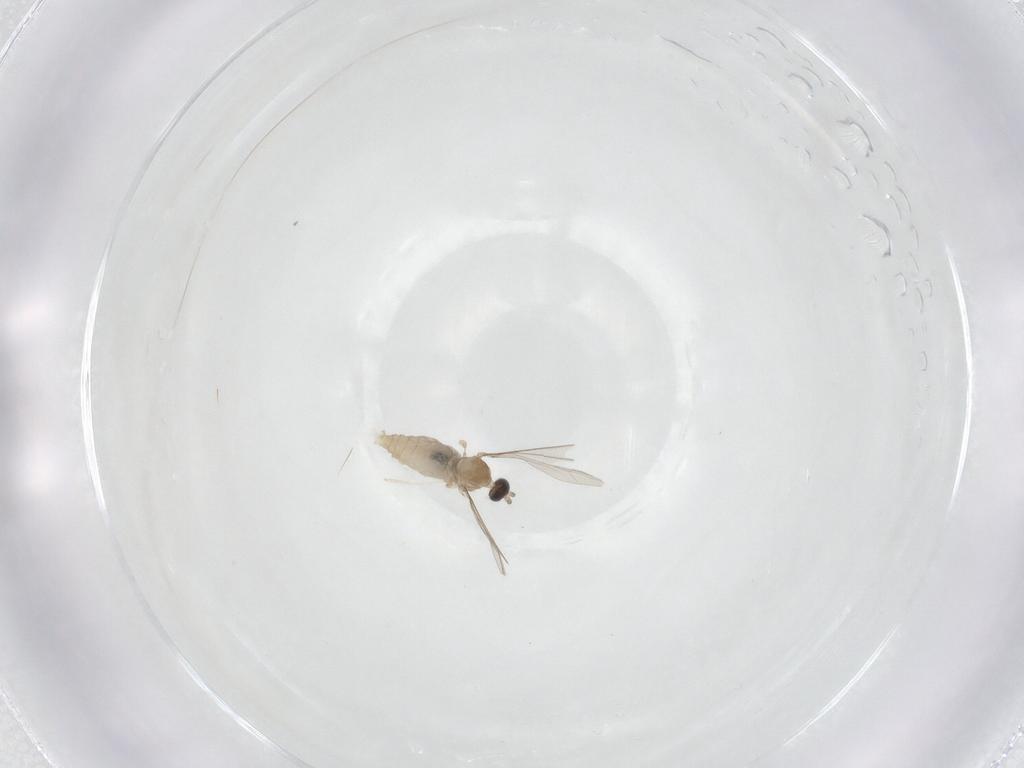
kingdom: Animalia
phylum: Arthropoda
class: Insecta
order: Diptera
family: Cecidomyiidae
